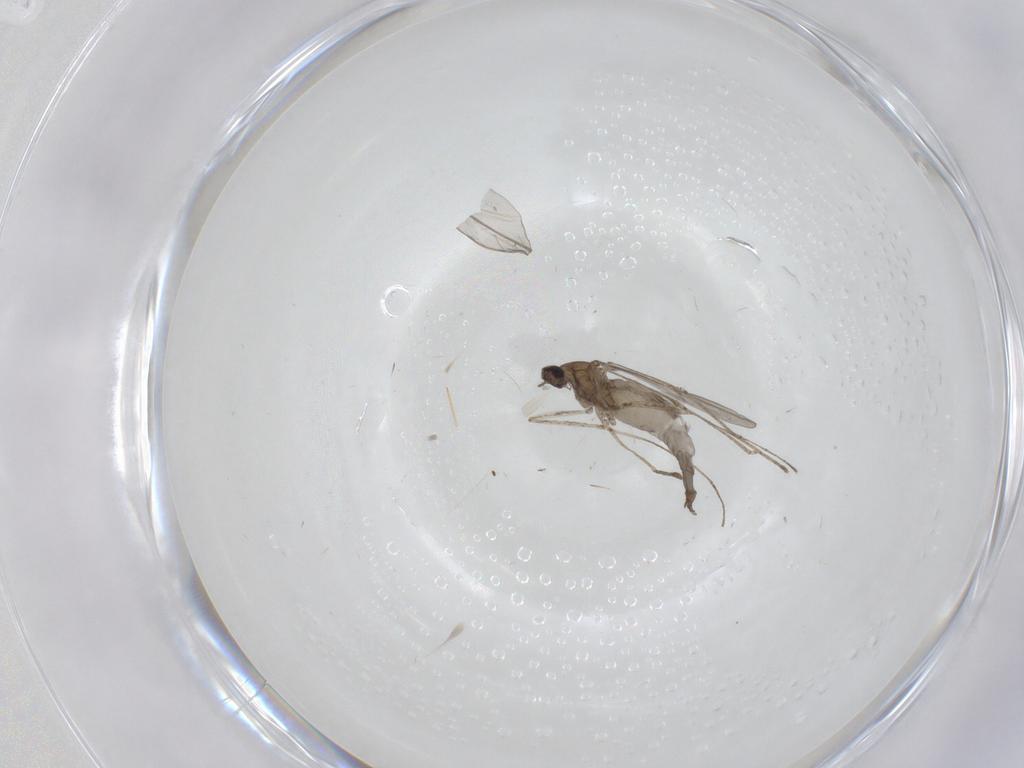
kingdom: Animalia
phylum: Arthropoda
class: Insecta
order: Diptera
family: Cecidomyiidae
